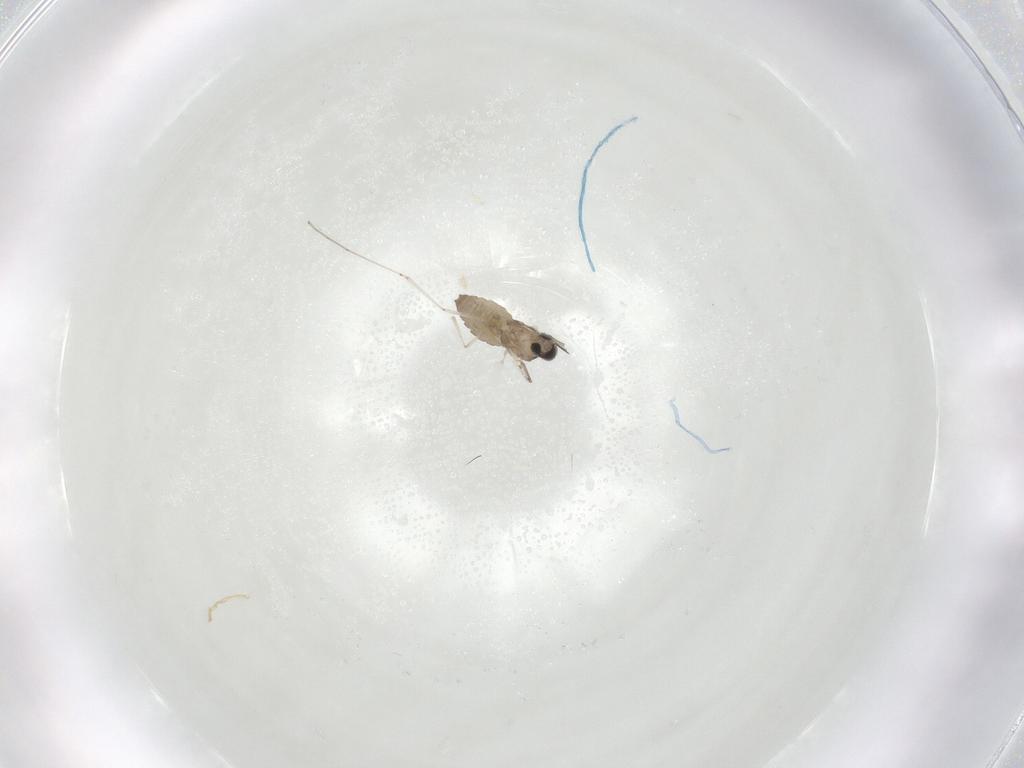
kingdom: Animalia
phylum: Arthropoda
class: Insecta
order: Diptera
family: Cecidomyiidae
